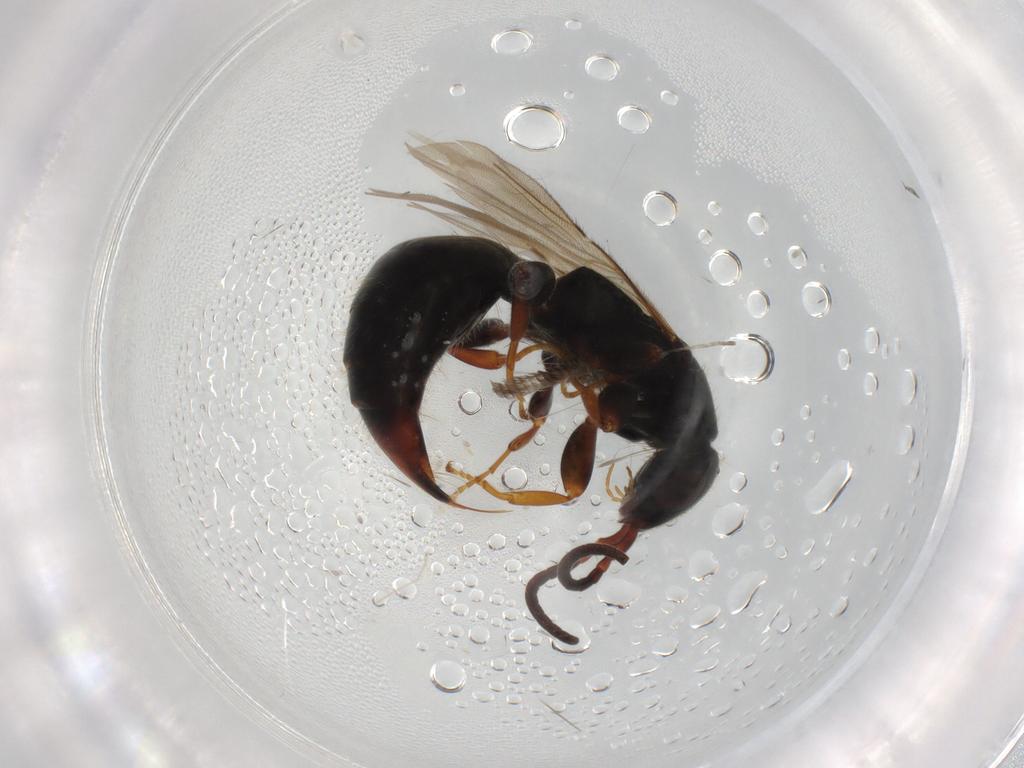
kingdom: Animalia
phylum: Arthropoda
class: Insecta
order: Hymenoptera
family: Bethylidae
